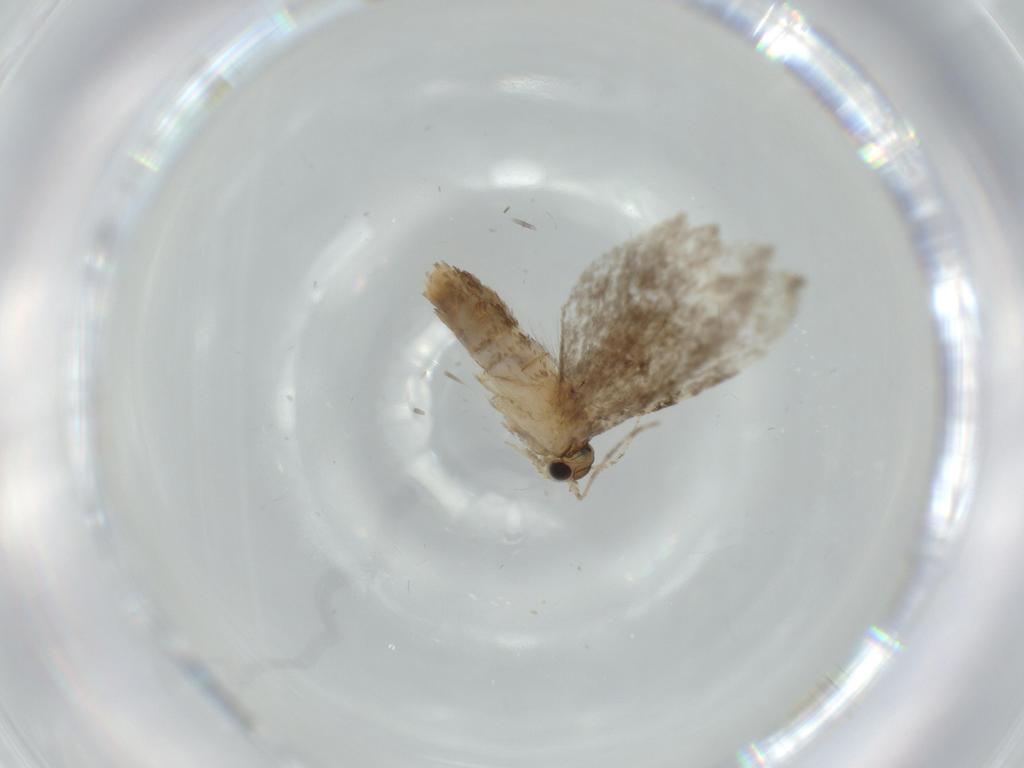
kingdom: Animalia
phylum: Arthropoda
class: Insecta
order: Lepidoptera
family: Tineidae
